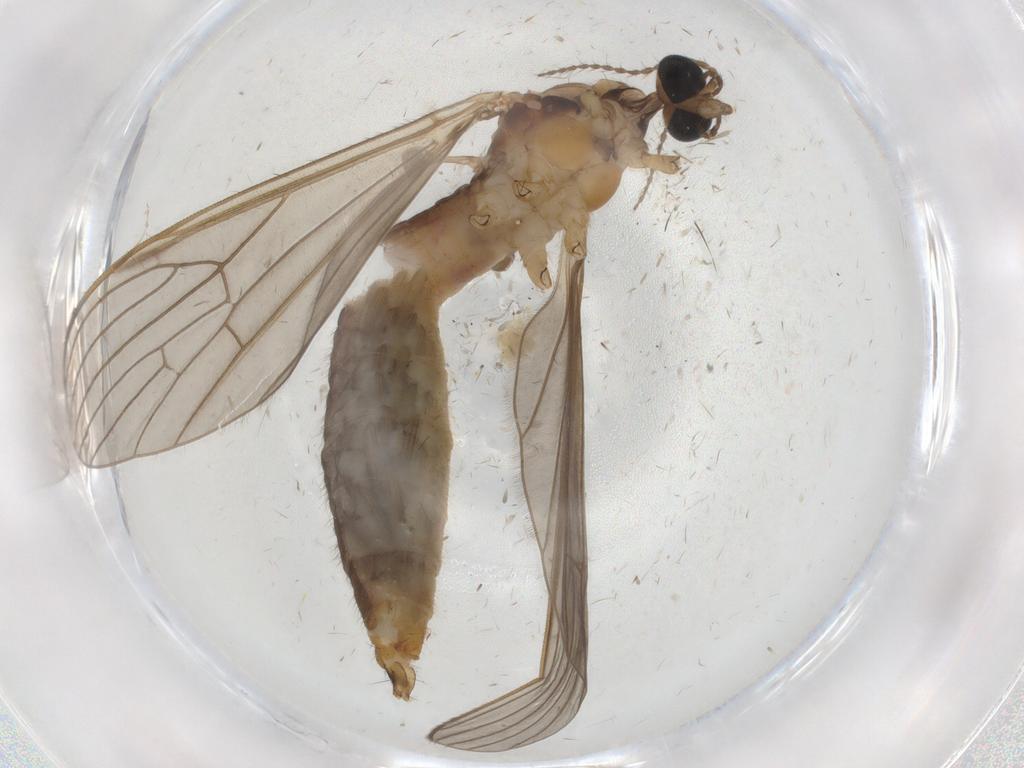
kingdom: Animalia
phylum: Arthropoda
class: Insecta
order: Diptera
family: Limoniidae
